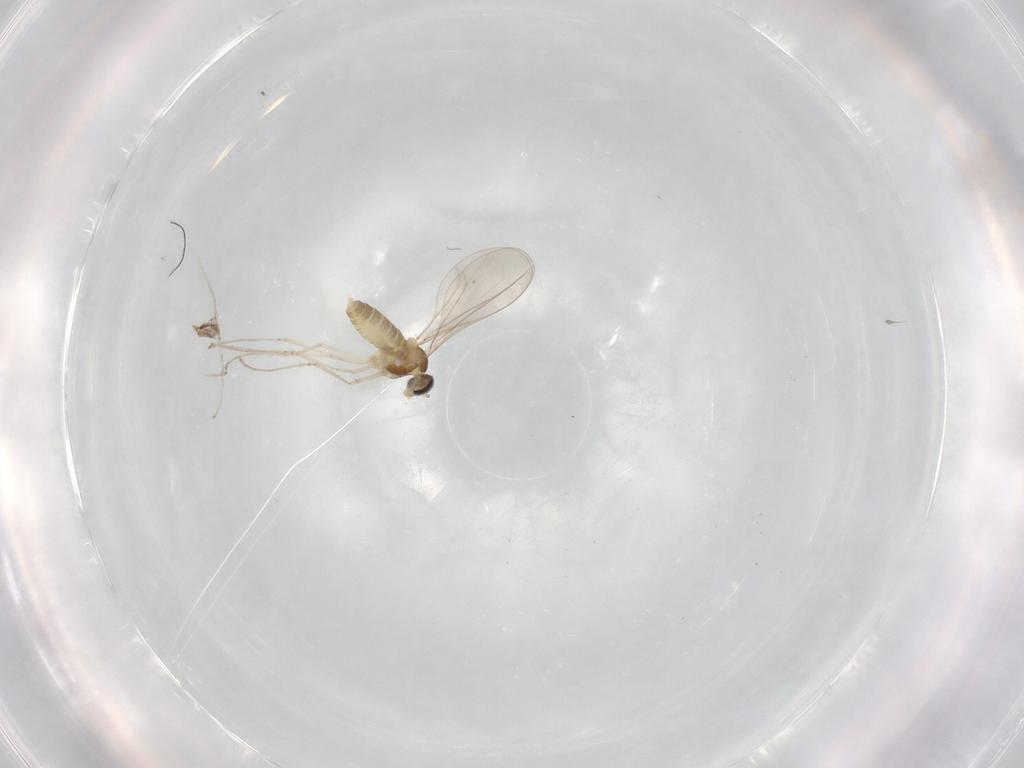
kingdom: Animalia
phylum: Arthropoda
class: Insecta
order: Diptera
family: Cecidomyiidae
